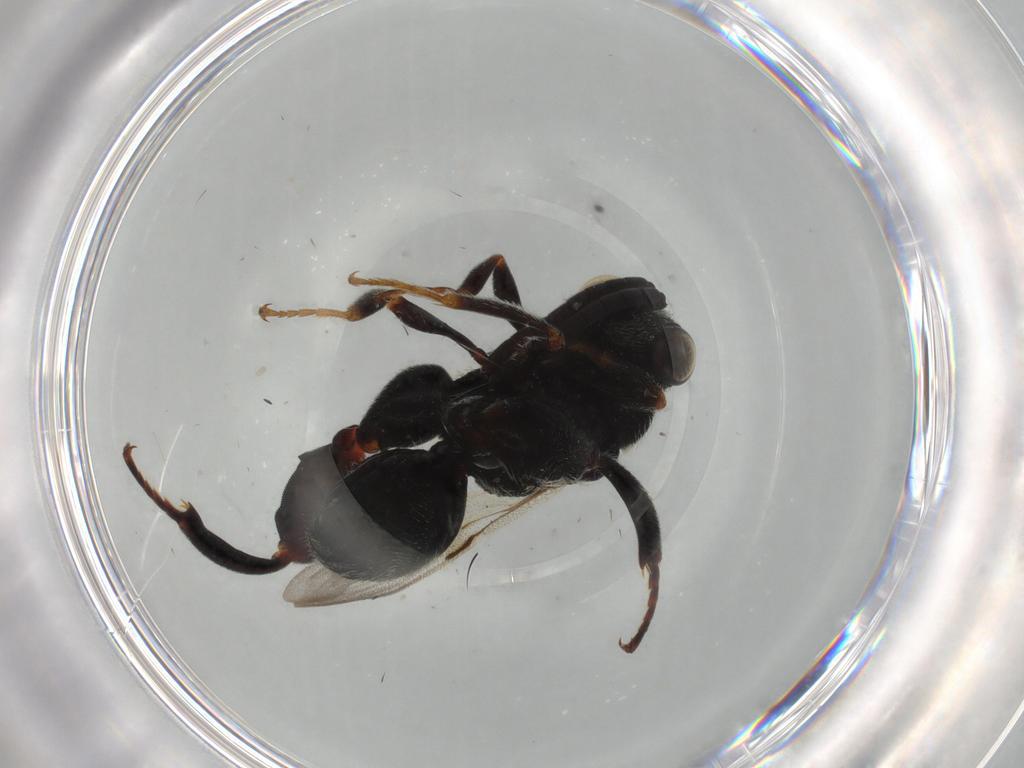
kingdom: Animalia
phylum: Arthropoda
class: Insecta
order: Hymenoptera
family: Chalcididae
